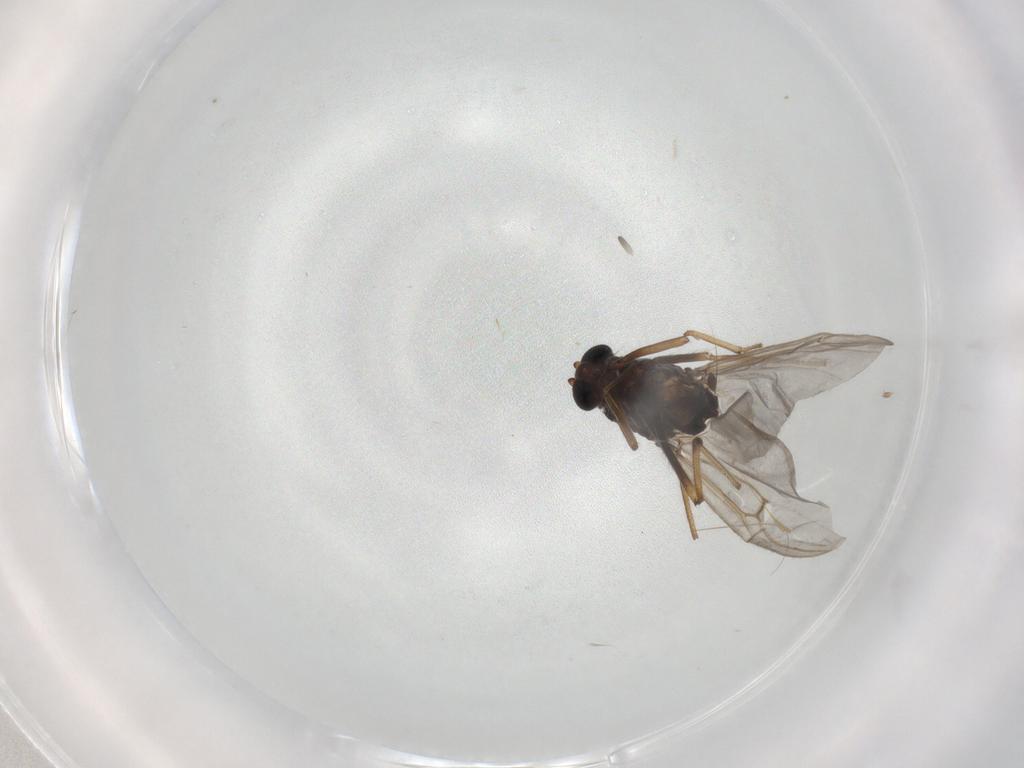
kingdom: Animalia
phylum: Arthropoda
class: Insecta
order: Diptera
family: Ceratopogonidae
